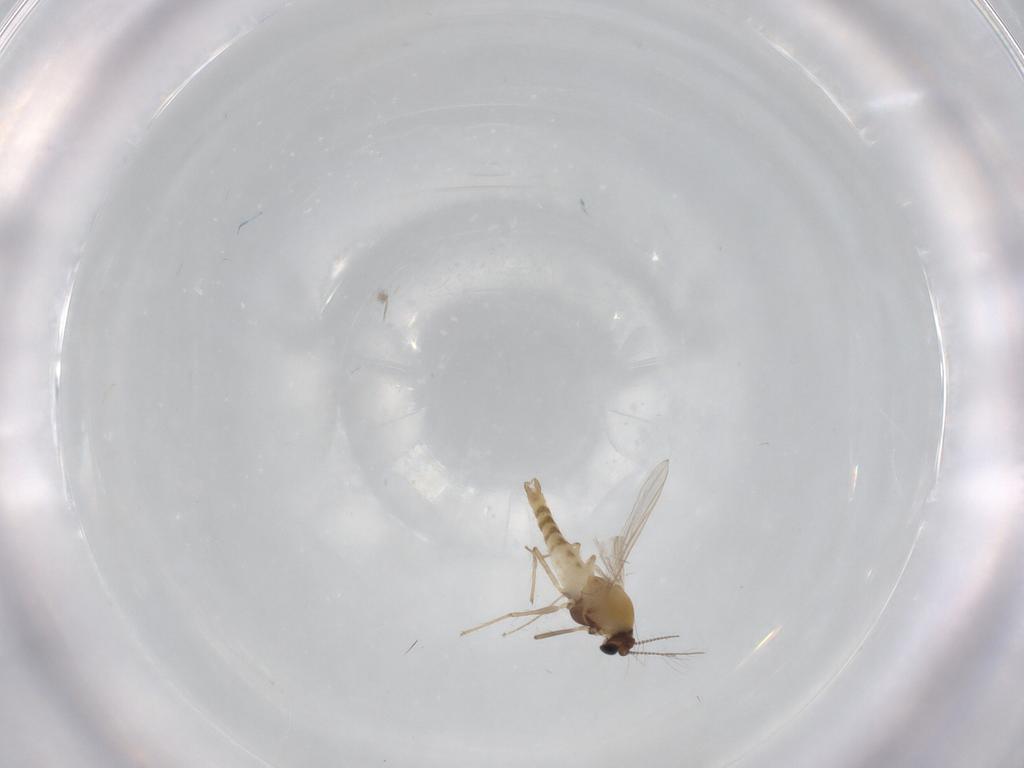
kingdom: Animalia
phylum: Arthropoda
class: Insecta
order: Diptera
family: Chironomidae
